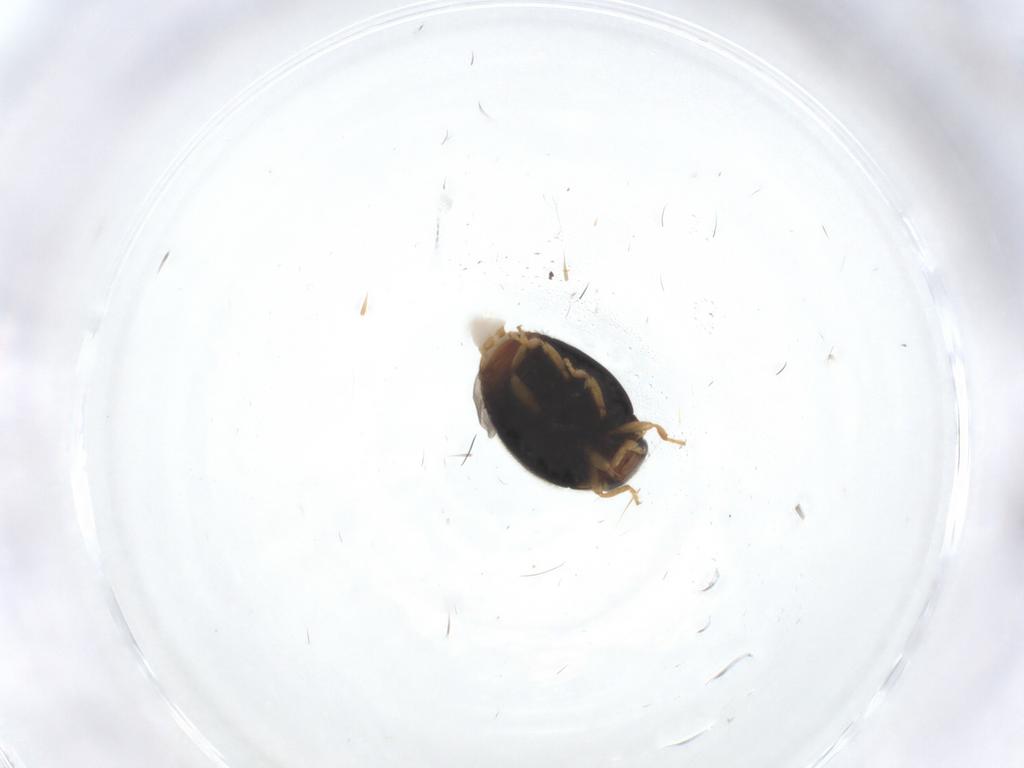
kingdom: Animalia
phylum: Arthropoda
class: Insecta
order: Coleoptera
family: Coccinellidae
